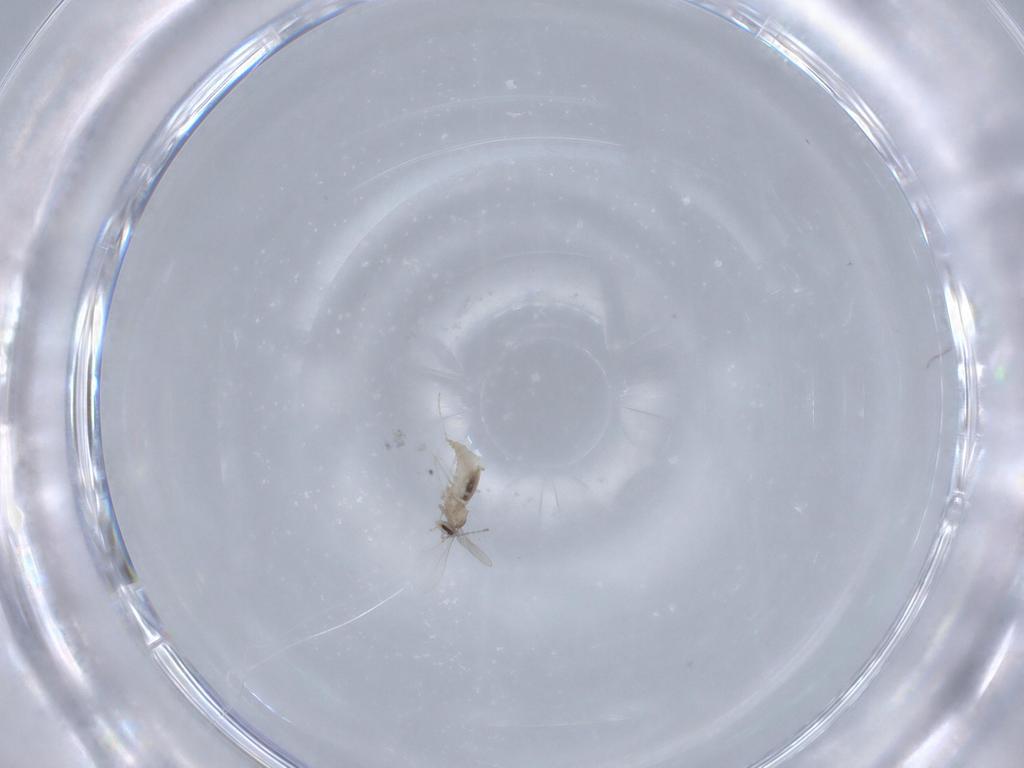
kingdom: Animalia
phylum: Arthropoda
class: Insecta
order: Diptera
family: Cecidomyiidae
